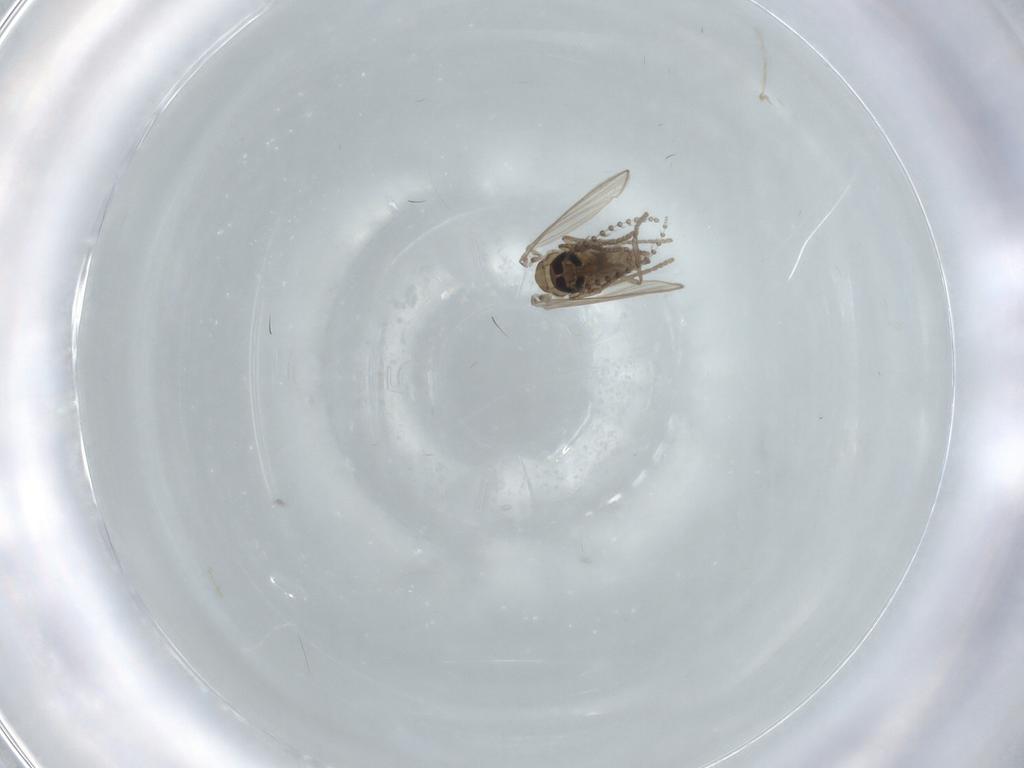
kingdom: Animalia
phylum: Arthropoda
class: Insecta
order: Diptera
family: Psychodidae
